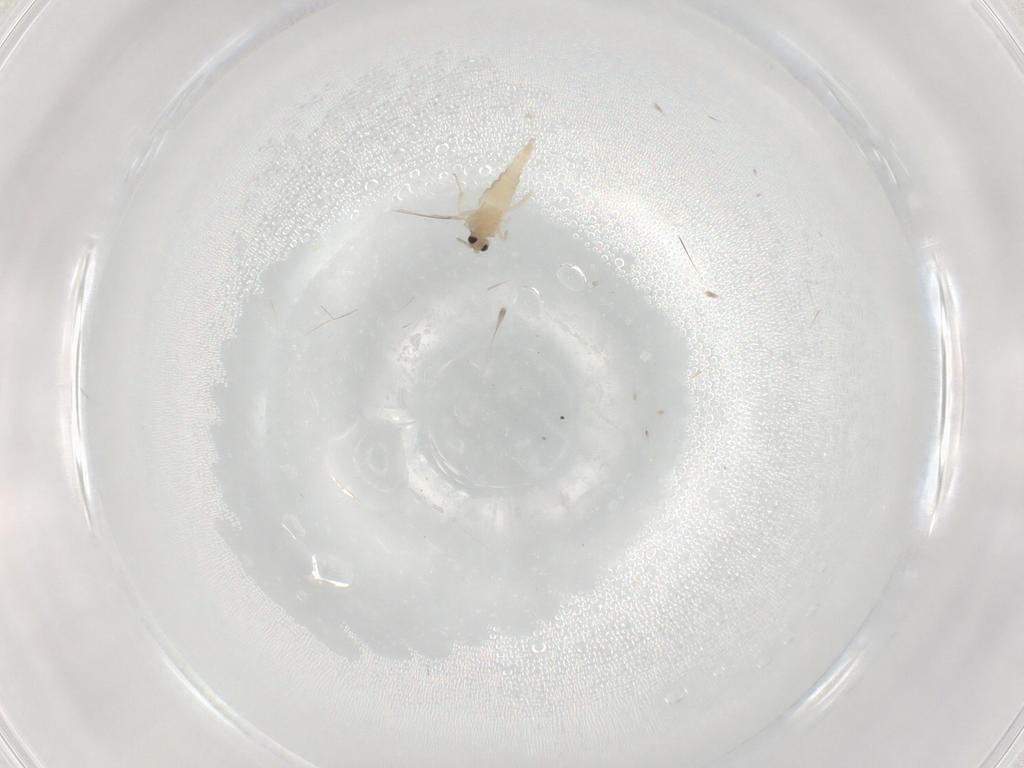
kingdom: Animalia
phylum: Arthropoda
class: Insecta
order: Diptera
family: Cecidomyiidae
